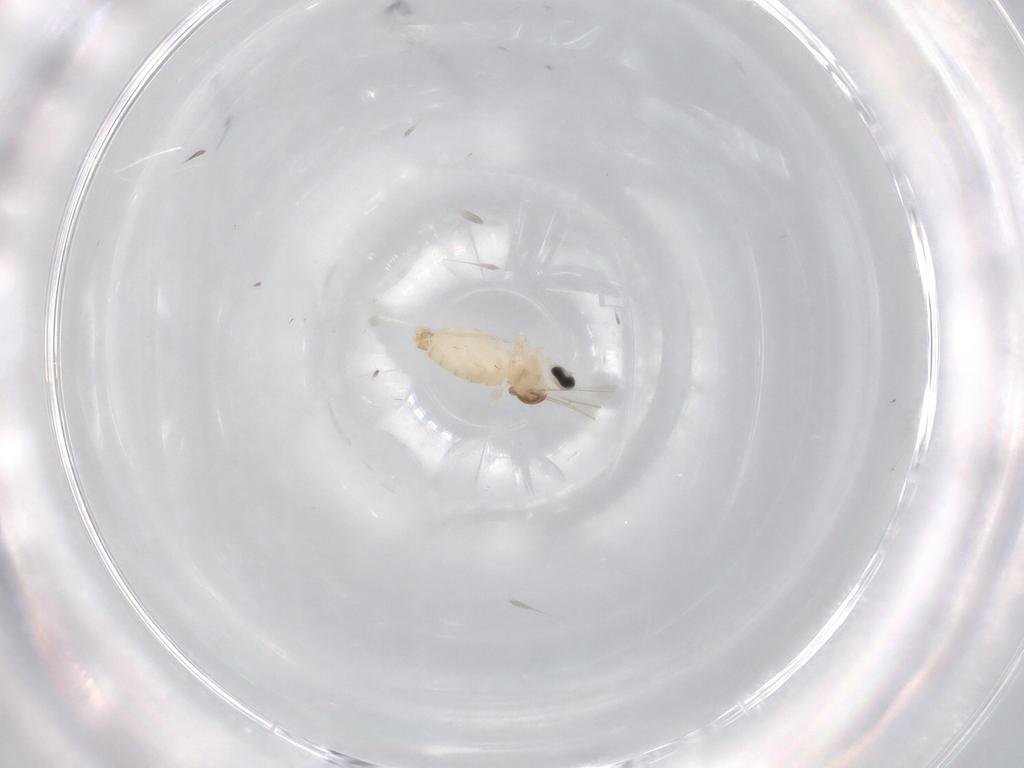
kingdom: Animalia
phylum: Arthropoda
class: Insecta
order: Diptera
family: Cecidomyiidae
